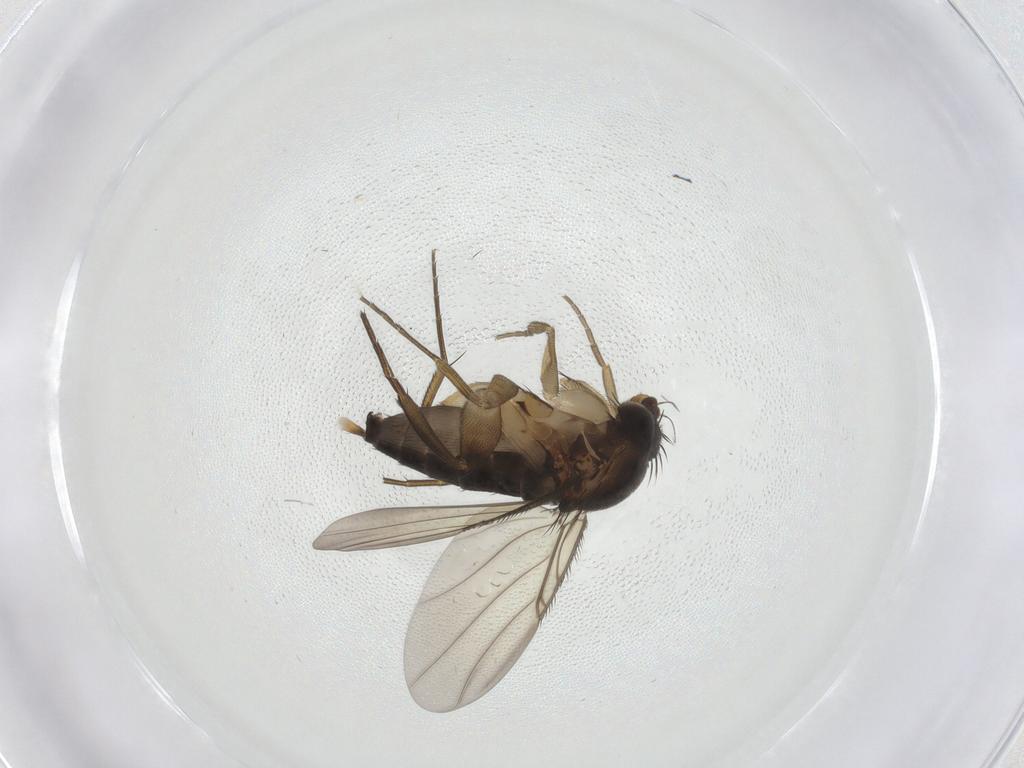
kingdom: Animalia
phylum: Arthropoda
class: Insecta
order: Diptera
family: Phoridae
